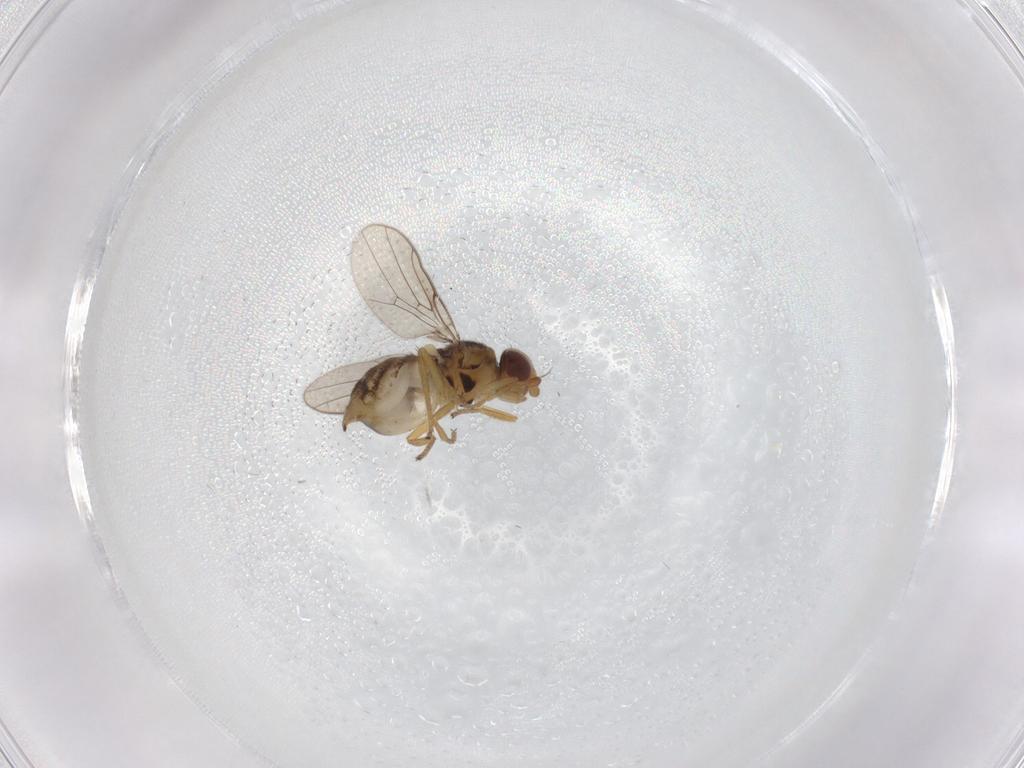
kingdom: Animalia
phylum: Arthropoda
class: Insecta
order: Diptera
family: Chloropidae
